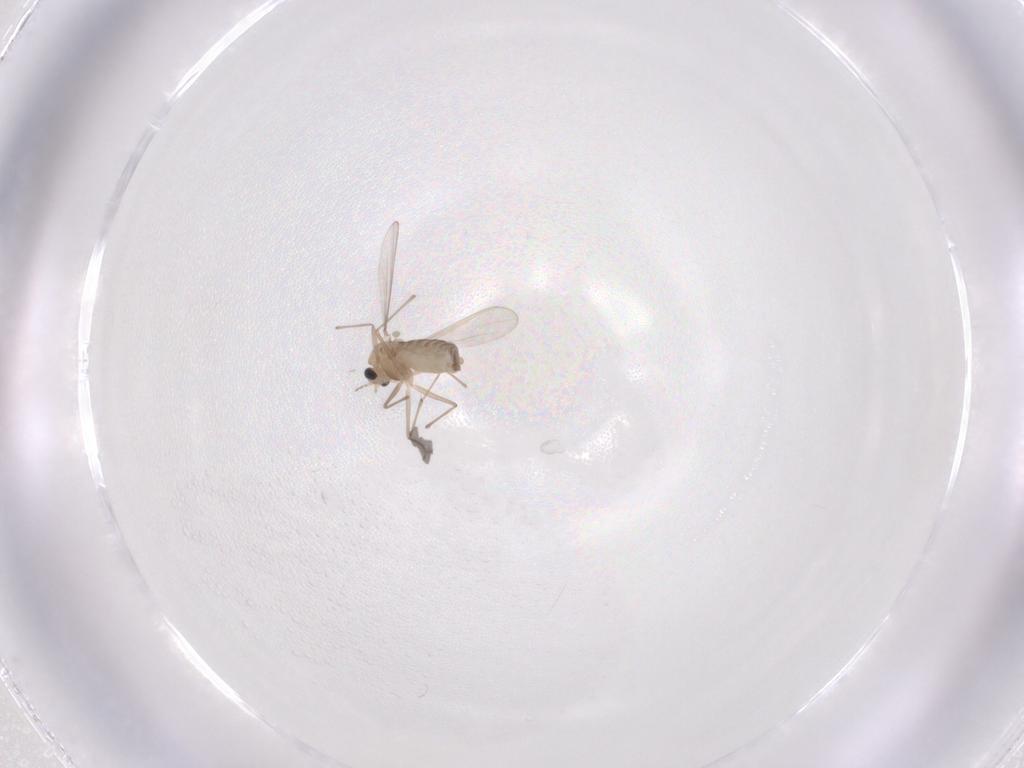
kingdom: Animalia
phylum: Arthropoda
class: Insecta
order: Diptera
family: Chironomidae
